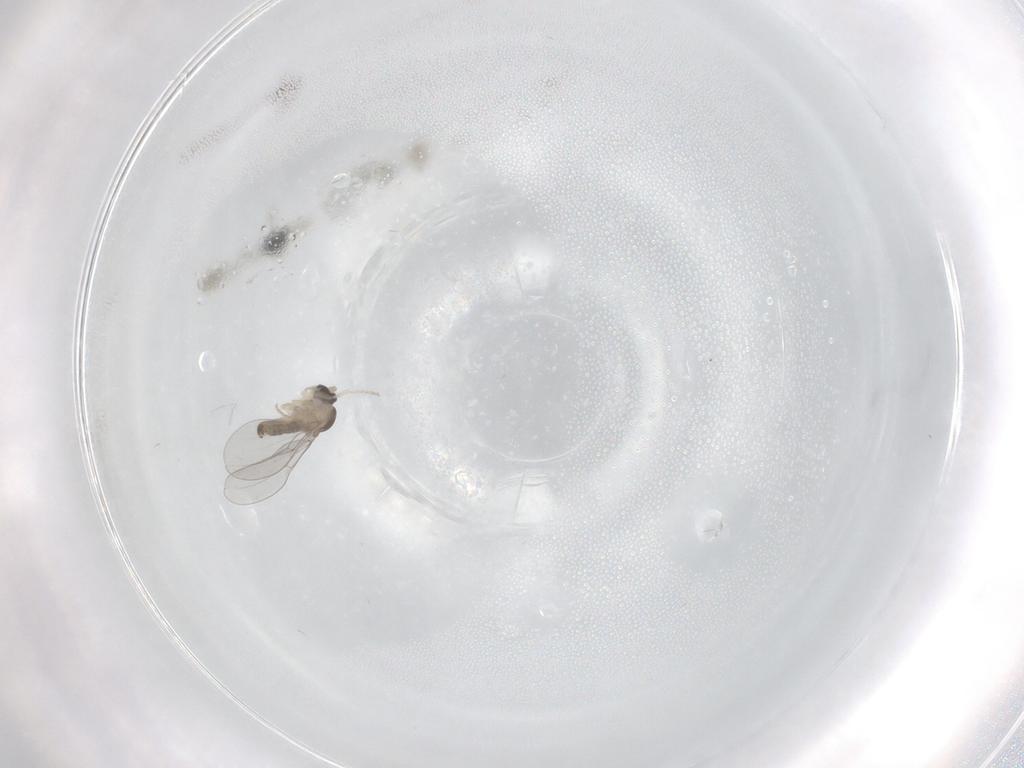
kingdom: Animalia
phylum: Arthropoda
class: Insecta
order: Diptera
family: Cecidomyiidae
